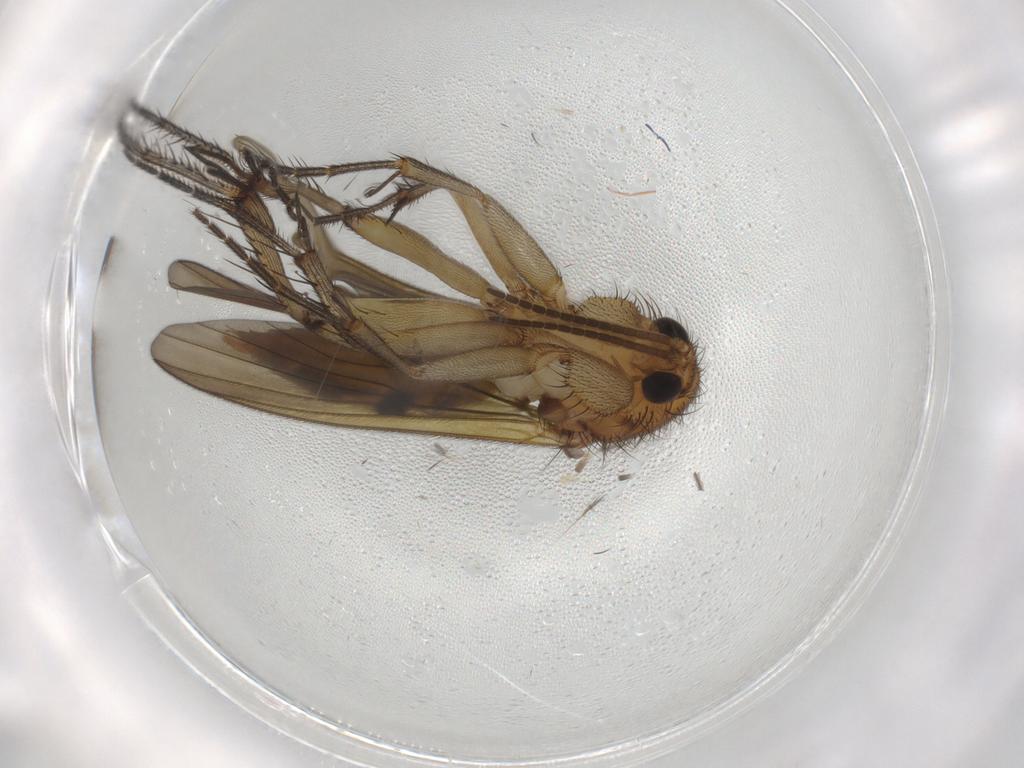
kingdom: Animalia
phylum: Arthropoda
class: Insecta
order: Diptera
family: Mycetophilidae
